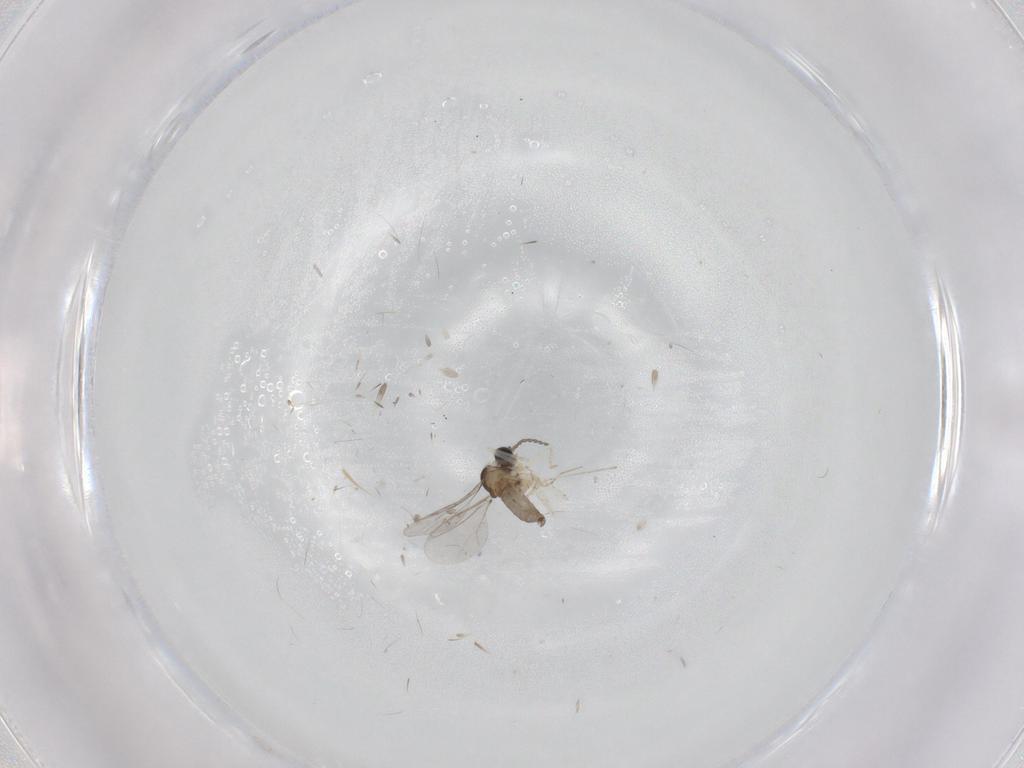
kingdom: Animalia
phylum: Arthropoda
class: Insecta
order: Diptera
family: Cecidomyiidae
